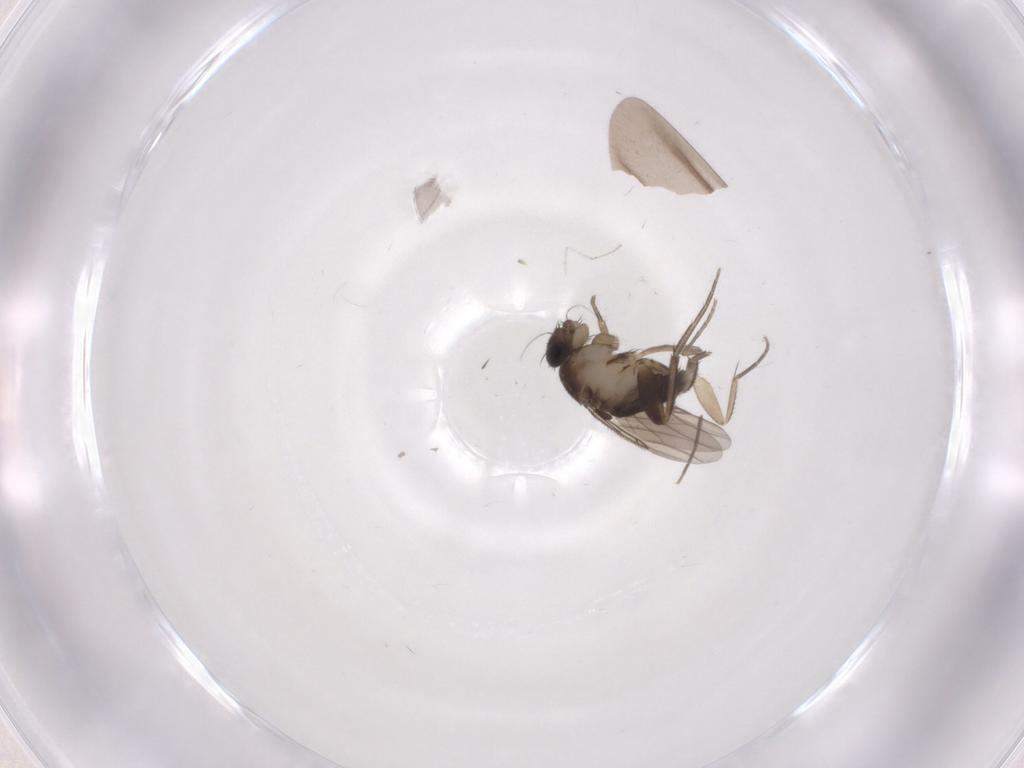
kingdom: Animalia
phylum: Arthropoda
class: Insecta
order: Diptera
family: Phoridae
